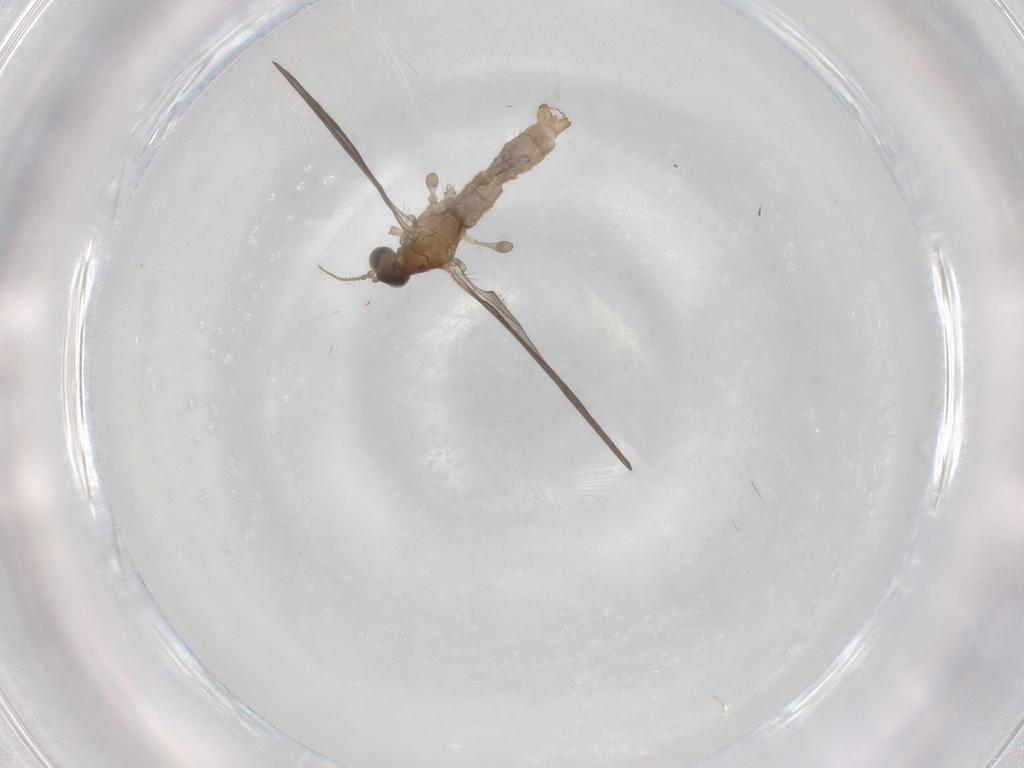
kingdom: Animalia
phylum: Arthropoda
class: Insecta
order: Diptera
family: Limoniidae
